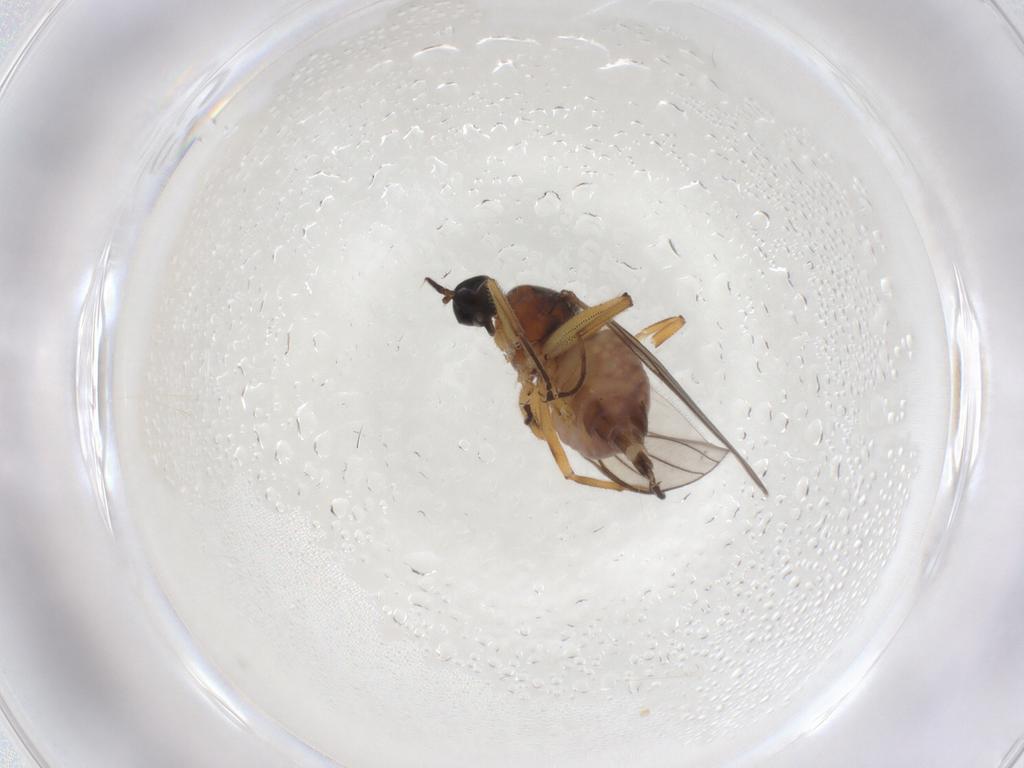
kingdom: Animalia
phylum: Arthropoda
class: Insecta
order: Diptera
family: Hybotidae
